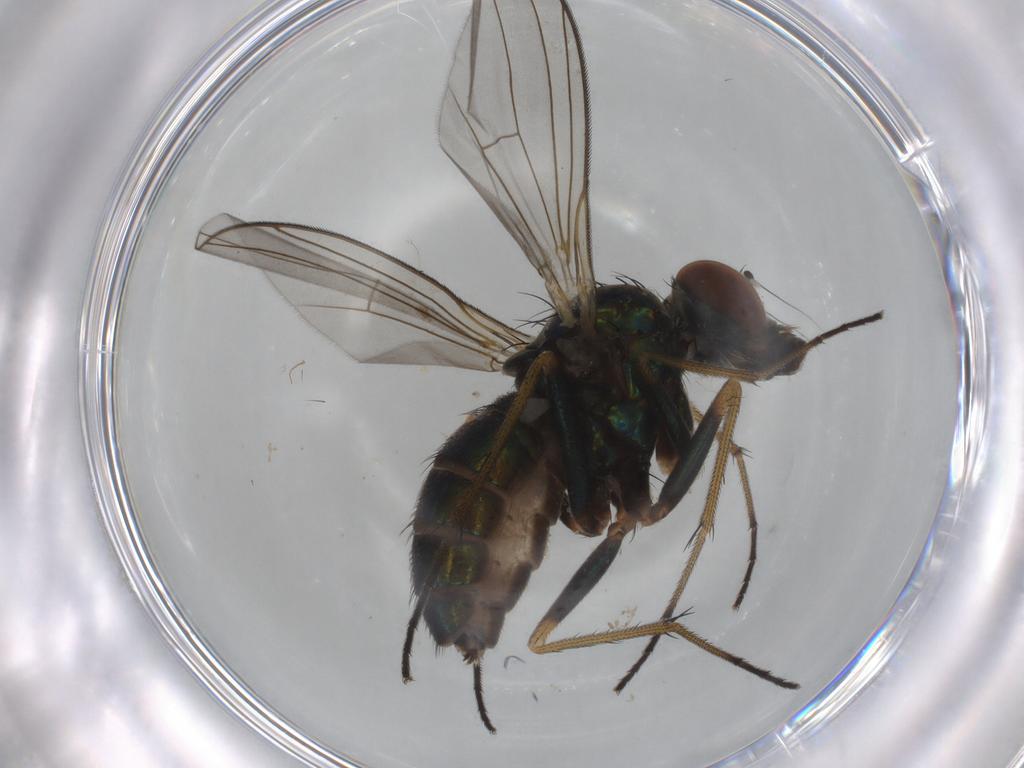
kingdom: Animalia
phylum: Arthropoda
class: Insecta
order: Diptera
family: Dolichopodidae
